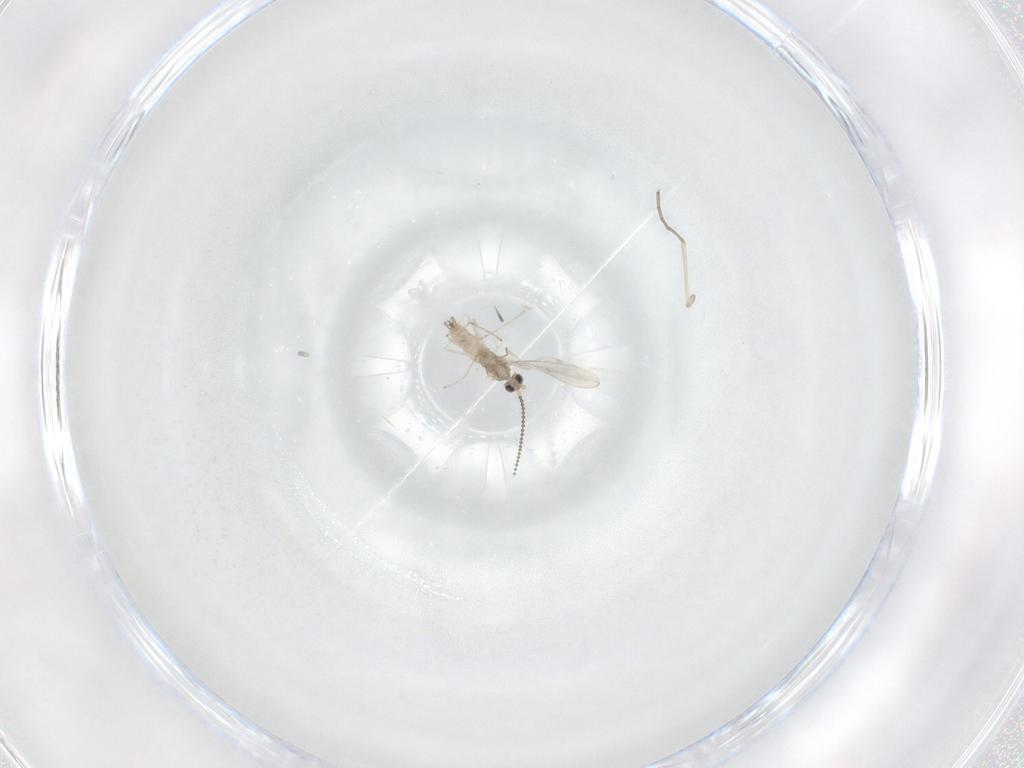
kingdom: Animalia
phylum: Arthropoda
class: Insecta
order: Diptera
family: Cecidomyiidae
